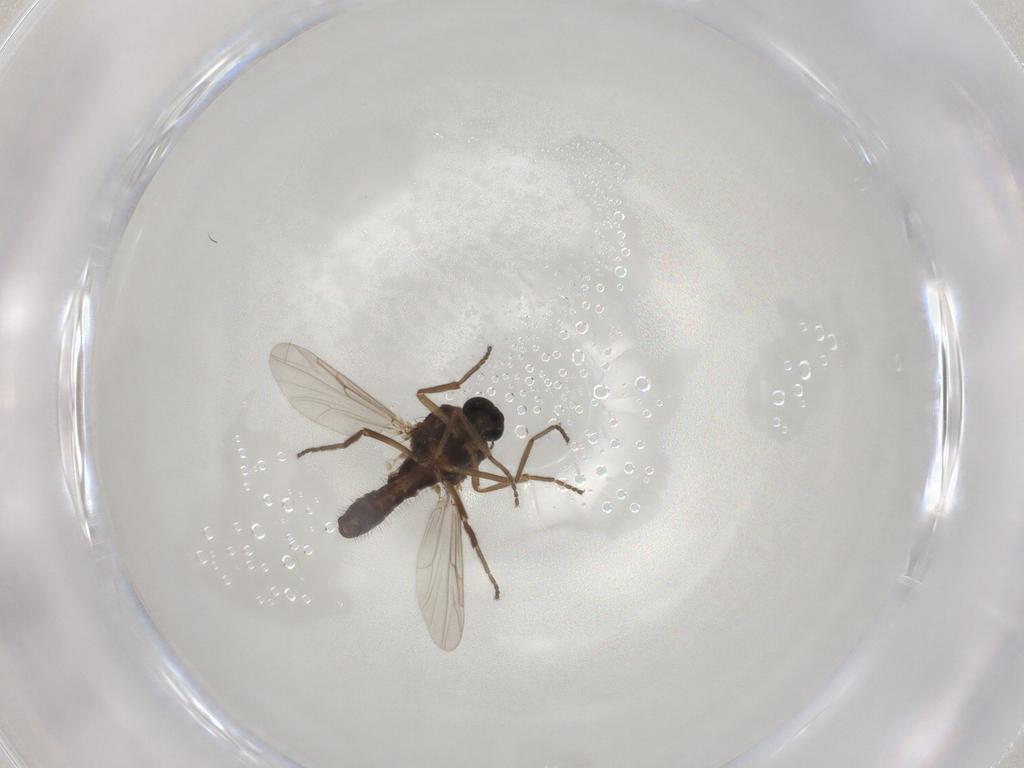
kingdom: Animalia
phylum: Arthropoda
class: Insecta
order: Diptera
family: Ceratopogonidae
